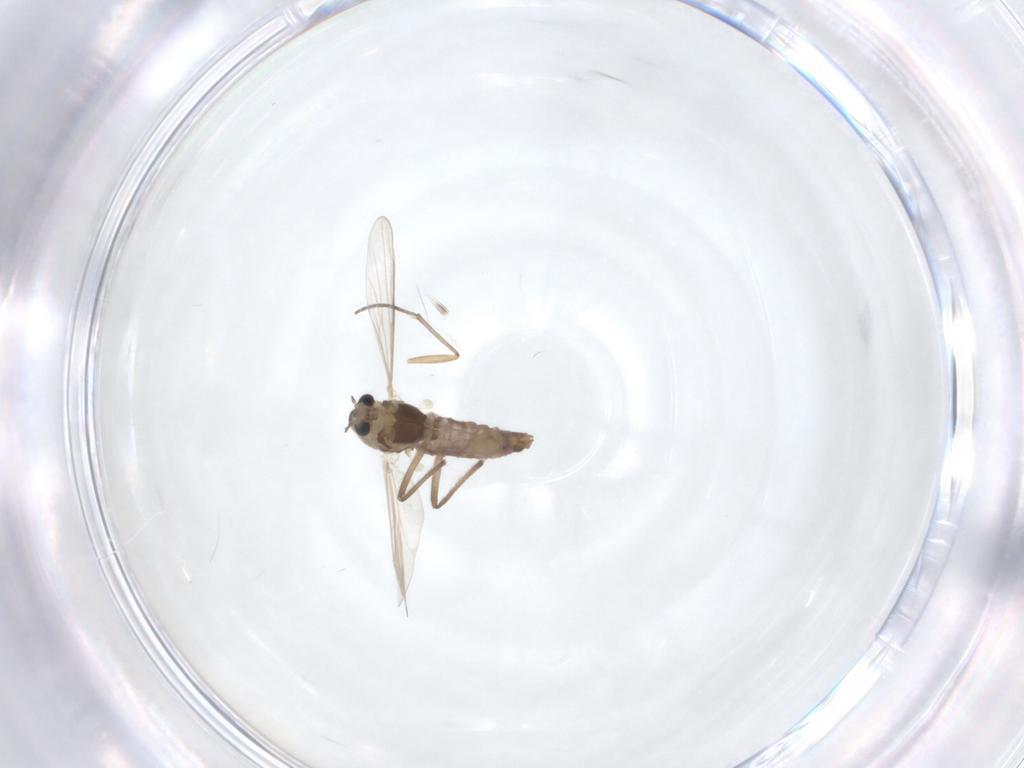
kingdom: Animalia
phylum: Arthropoda
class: Insecta
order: Diptera
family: Chironomidae
